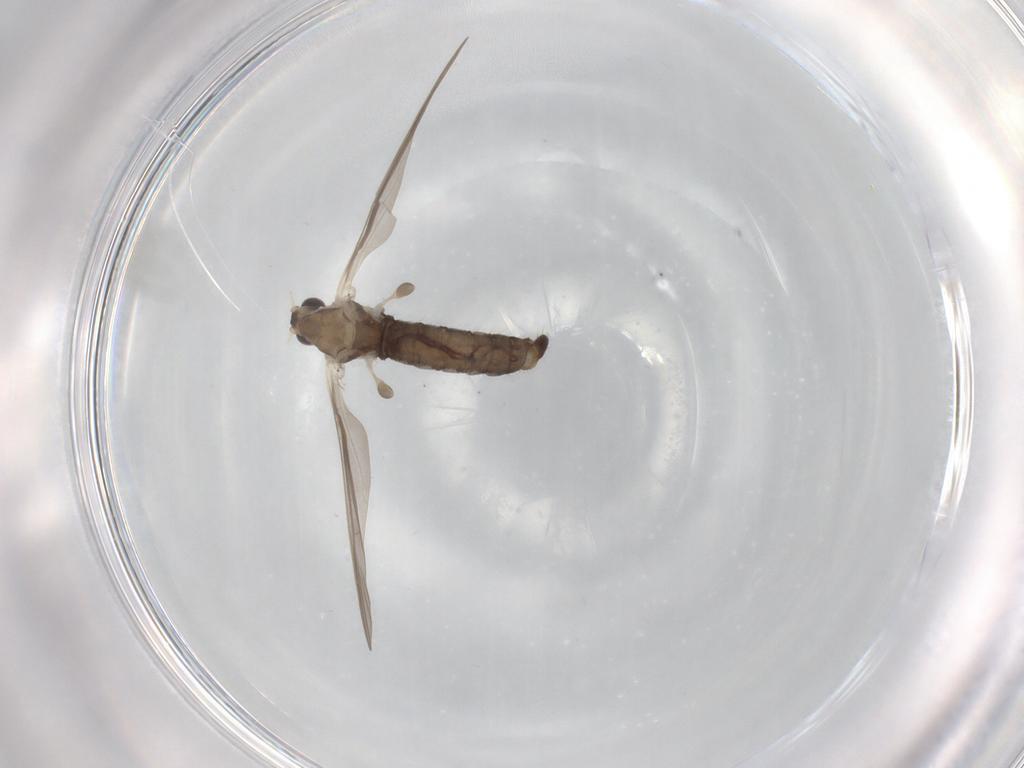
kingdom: Animalia
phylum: Arthropoda
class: Insecta
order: Diptera
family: Limoniidae
